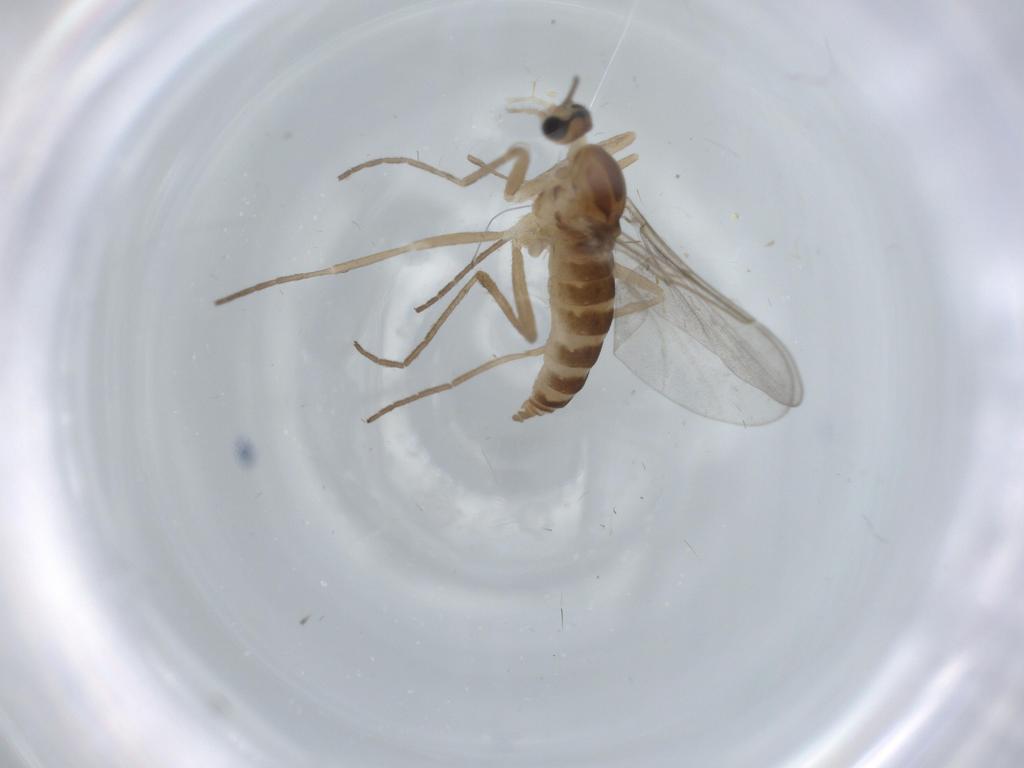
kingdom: Animalia
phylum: Arthropoda
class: Insecta
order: Diptera
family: Cecidomyiidae
